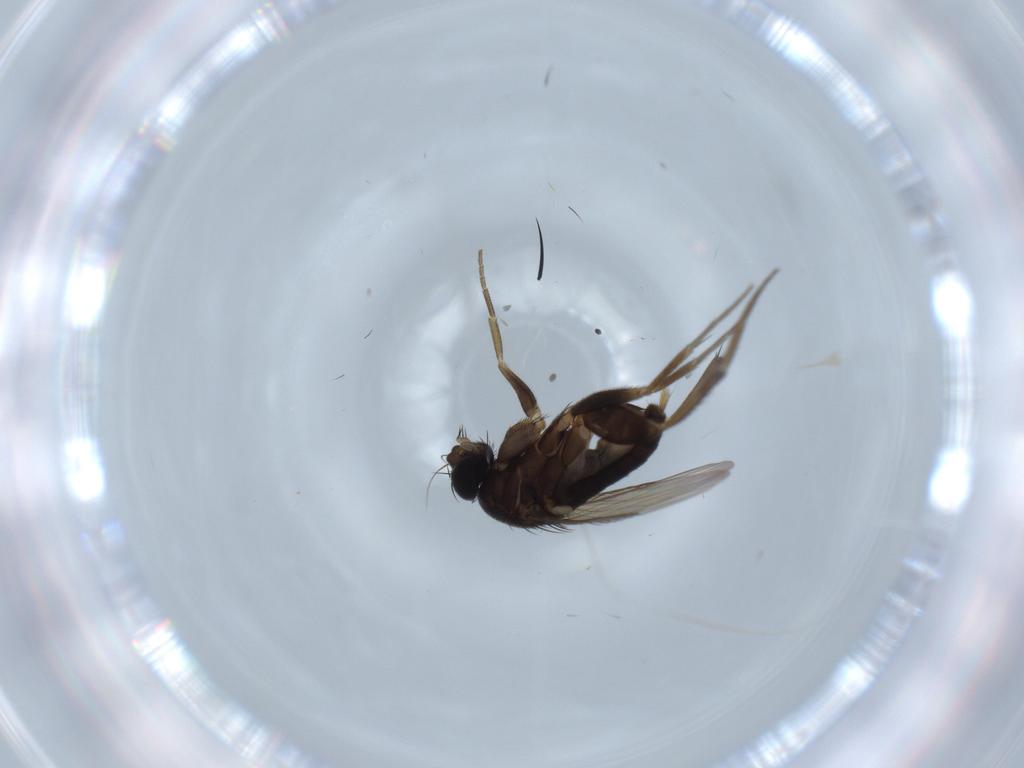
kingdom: Animalia
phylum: Arthropoda
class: Insecta
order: Diptera
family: Phoridae
